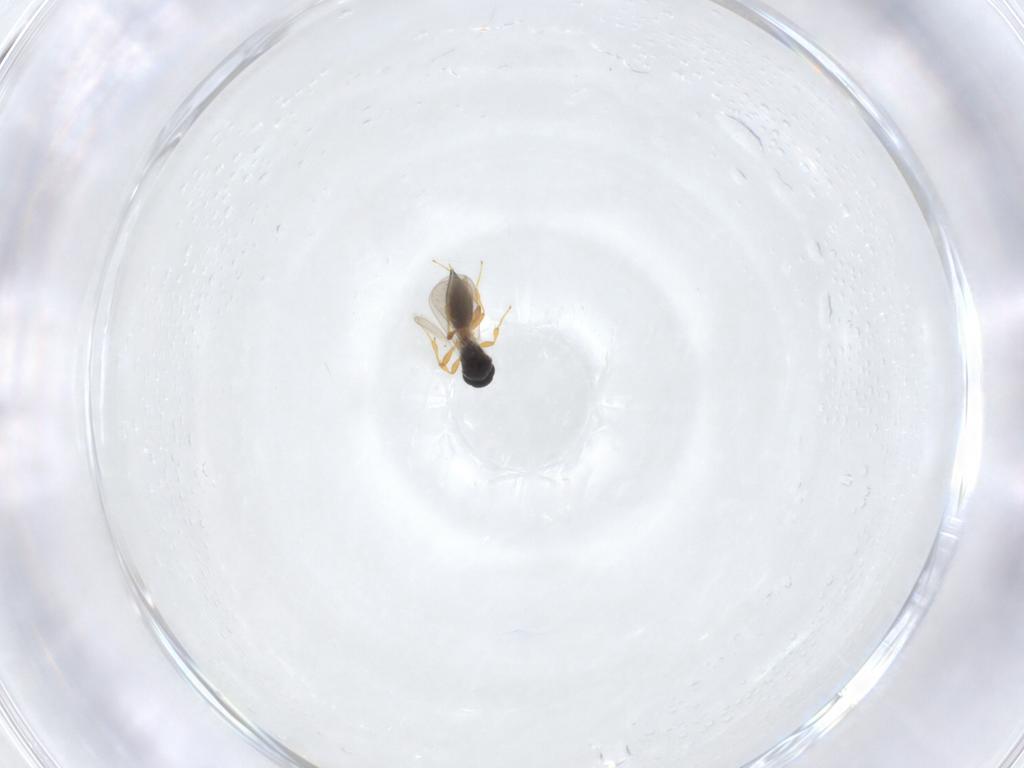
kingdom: Animalia
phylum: Arthropoda
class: Insecta
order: Hymenoptera
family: Platygastridae
